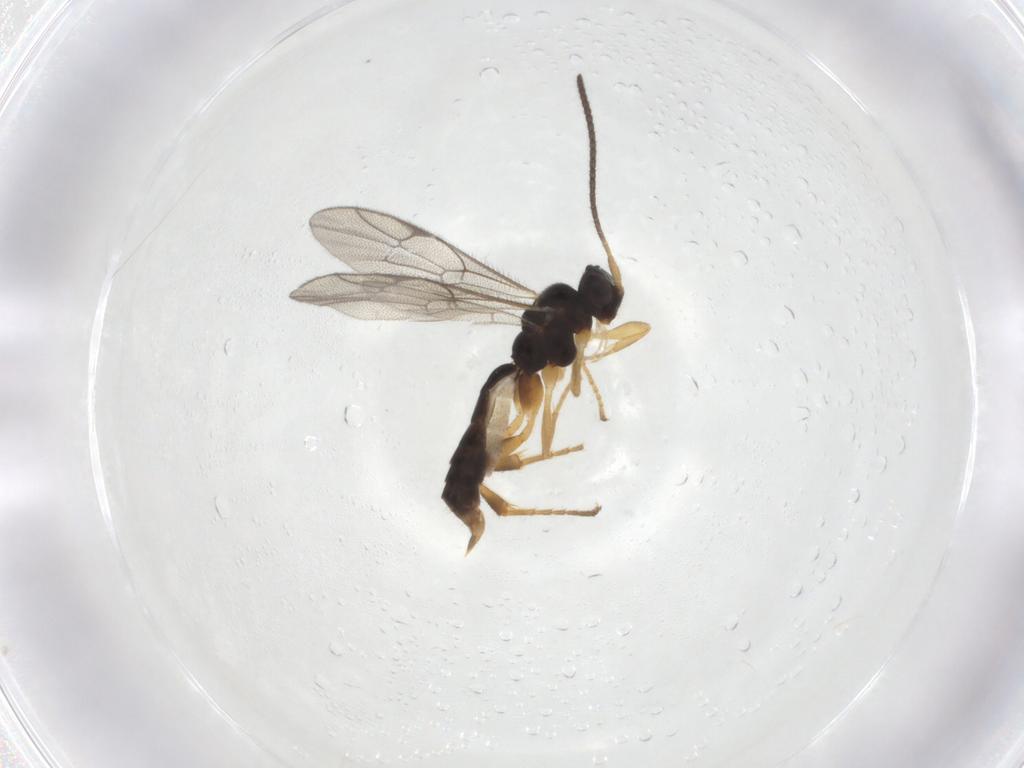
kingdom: Animalia
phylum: Arthropoda
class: Insecta
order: Hymenoptera
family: Ichneumonidae
